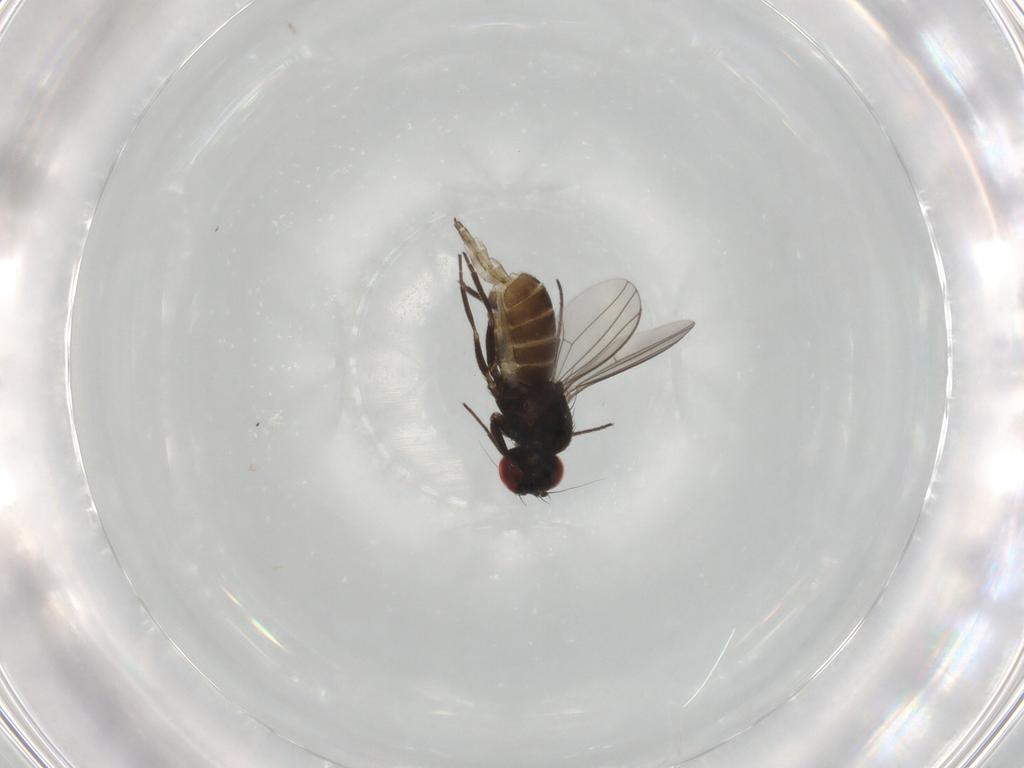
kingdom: Animalia
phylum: Arthropoda
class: Insecta
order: Diptera
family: Dolichopodidae
